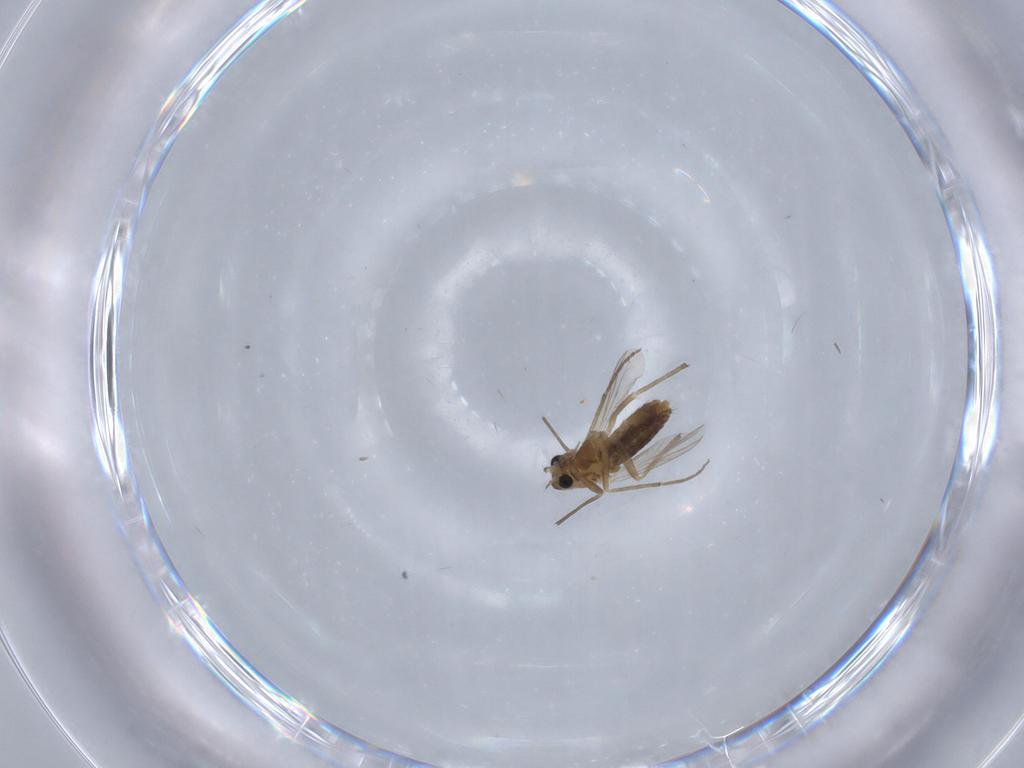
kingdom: Animalia
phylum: Arthropoda
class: Insecta
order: Diptera
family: Chironomidae
